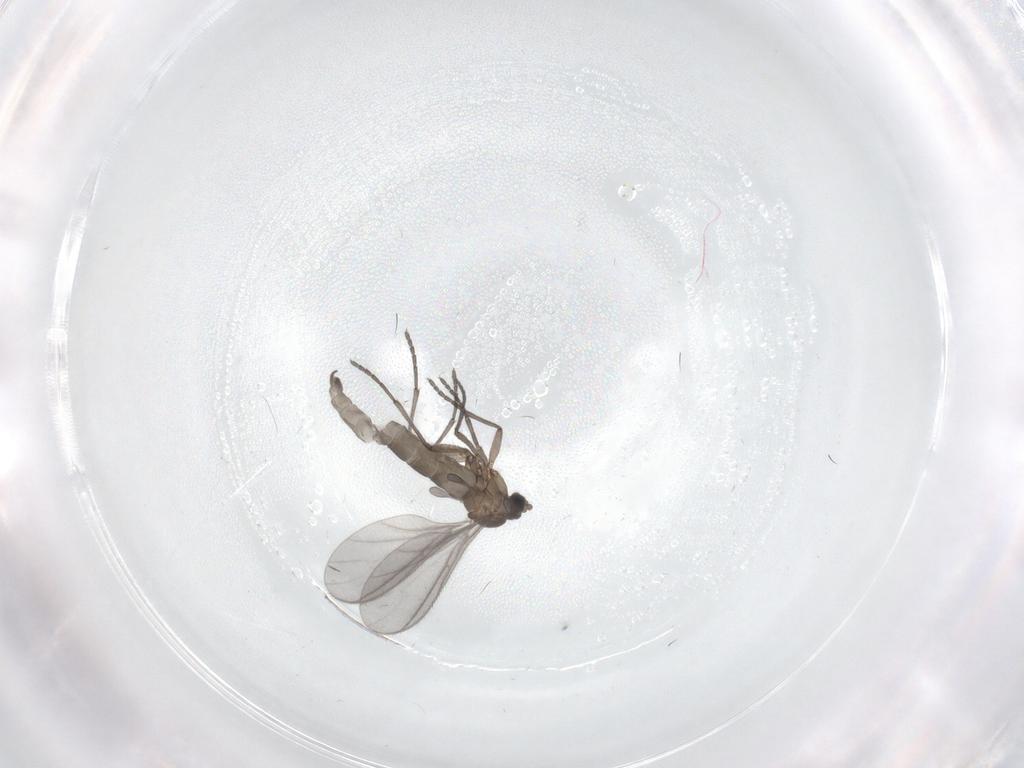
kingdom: Animalia
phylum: Arthropoda
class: Insecta
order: Diptera
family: Sciaridae
